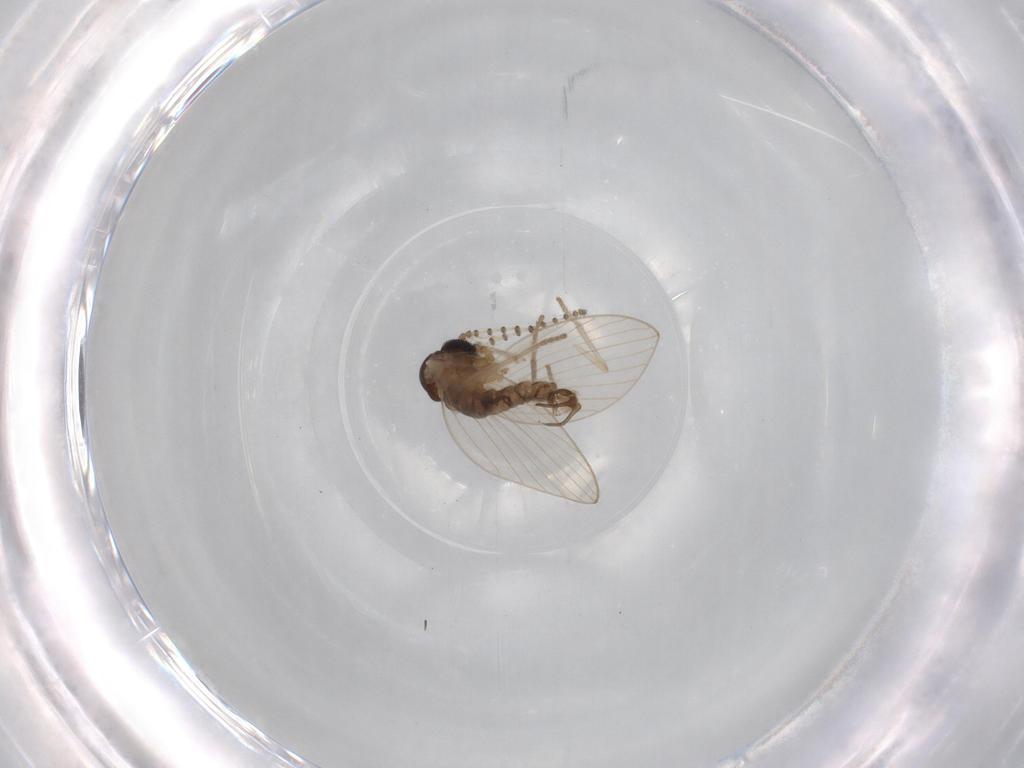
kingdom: Animalia
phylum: Arthropoda
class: Insecta
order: Diptera
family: Psychodidae
